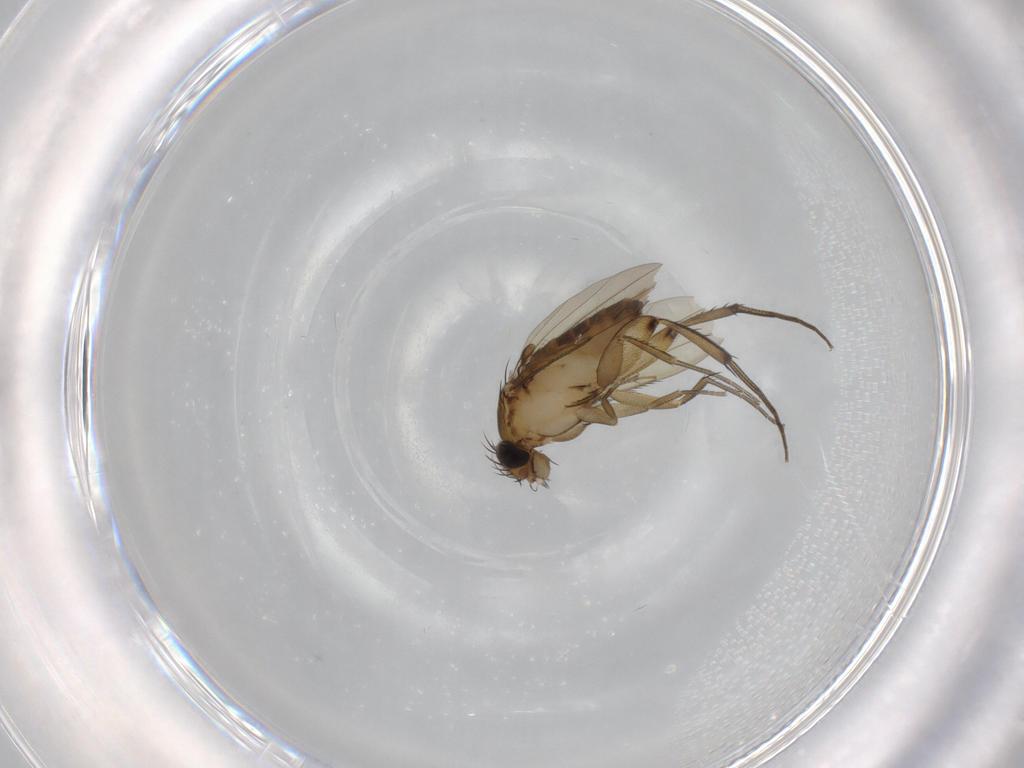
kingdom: Animalia
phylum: Arthropoda
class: Insecta
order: Diptera
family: Phoridae
